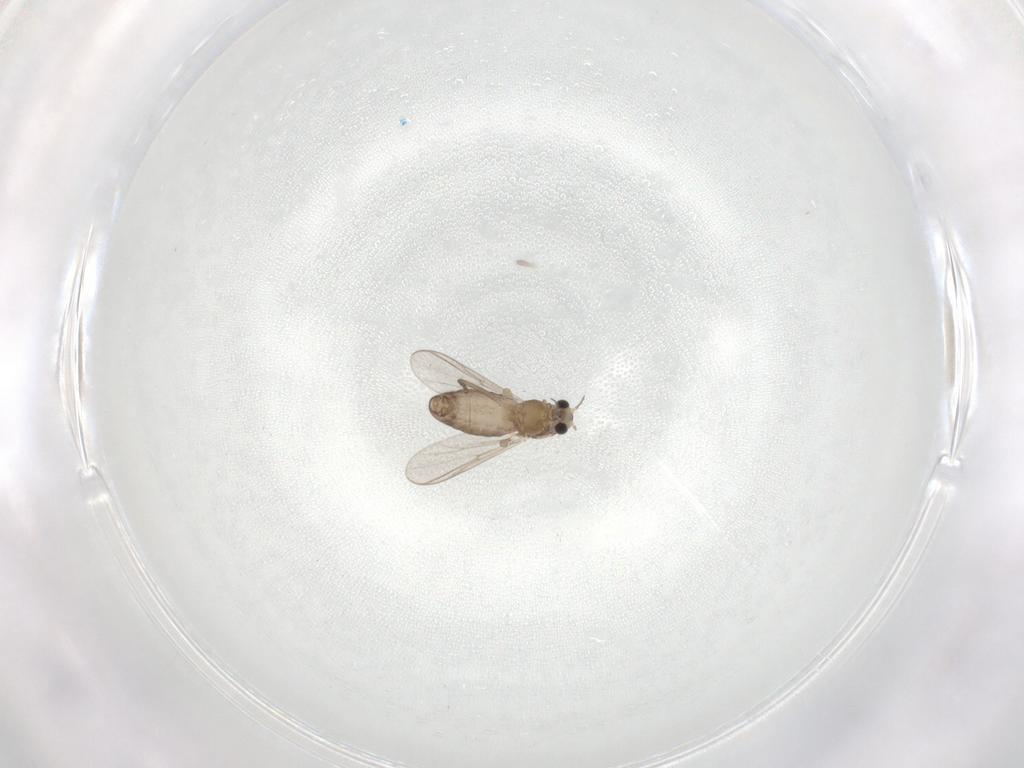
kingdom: Animalia
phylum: Arthropoda
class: Insecta
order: Diptera
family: Chironomidae
